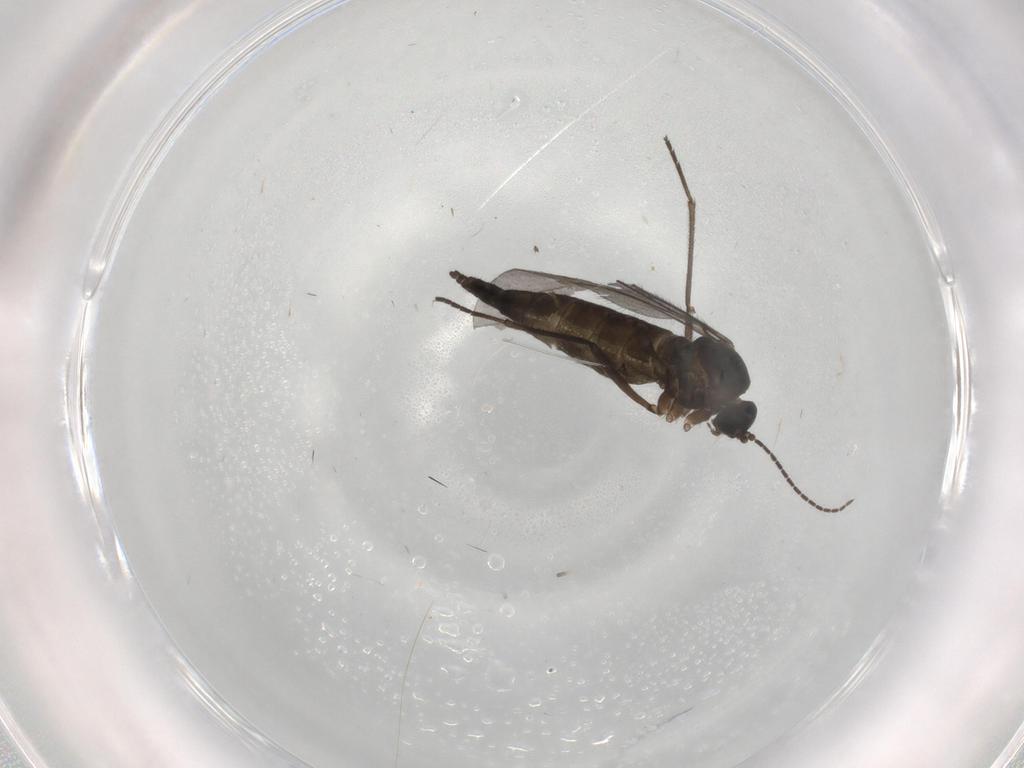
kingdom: Animalia
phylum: Arthropoda
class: Insecta
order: Diptera
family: Sciaridae
